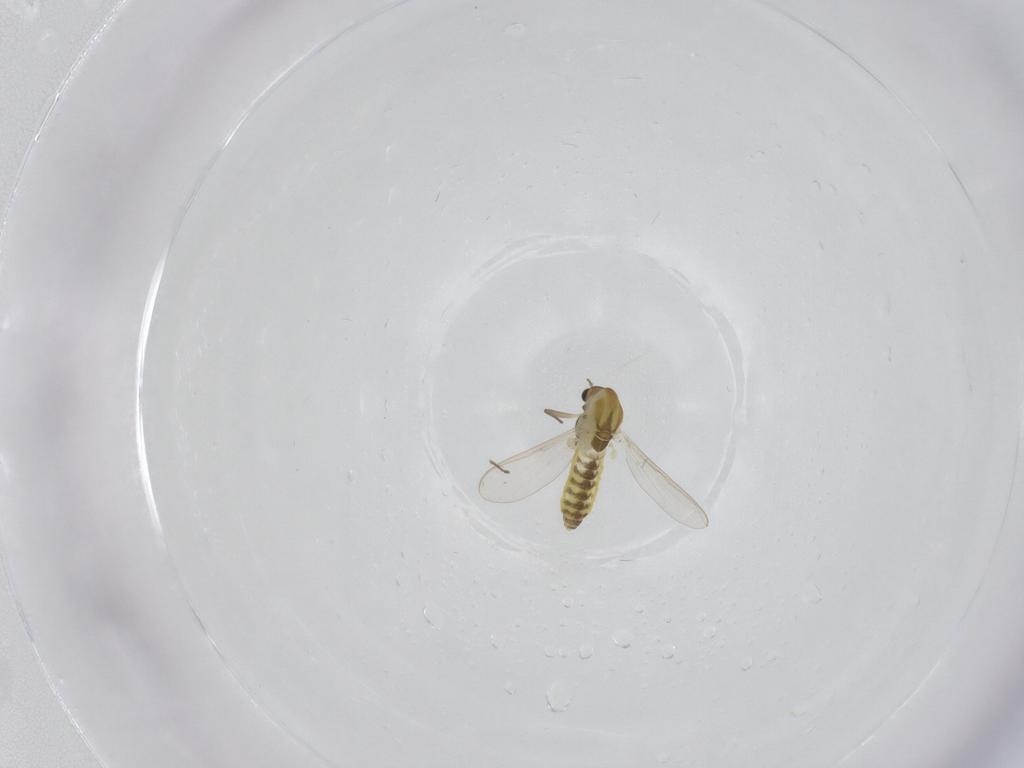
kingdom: Animalia
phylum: Arthropoda
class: Insecta
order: Diptera
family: Chironomidae
